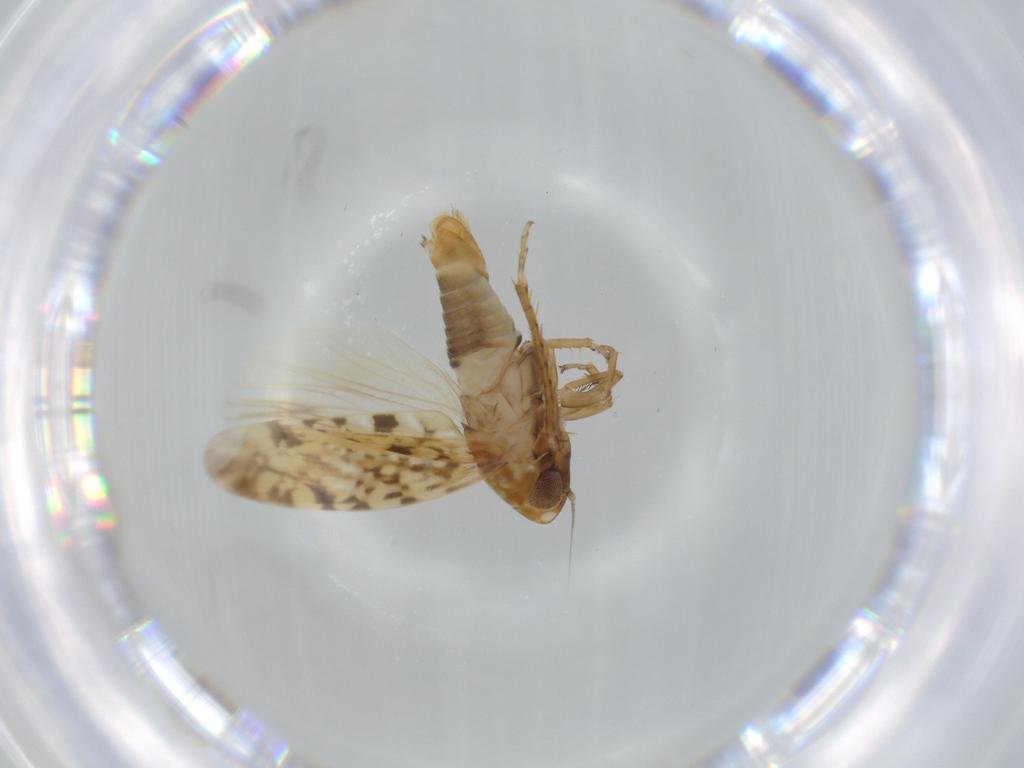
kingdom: Animalia
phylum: Arthropoda
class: Insecta
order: Hemiptera
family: Cicadellidae
